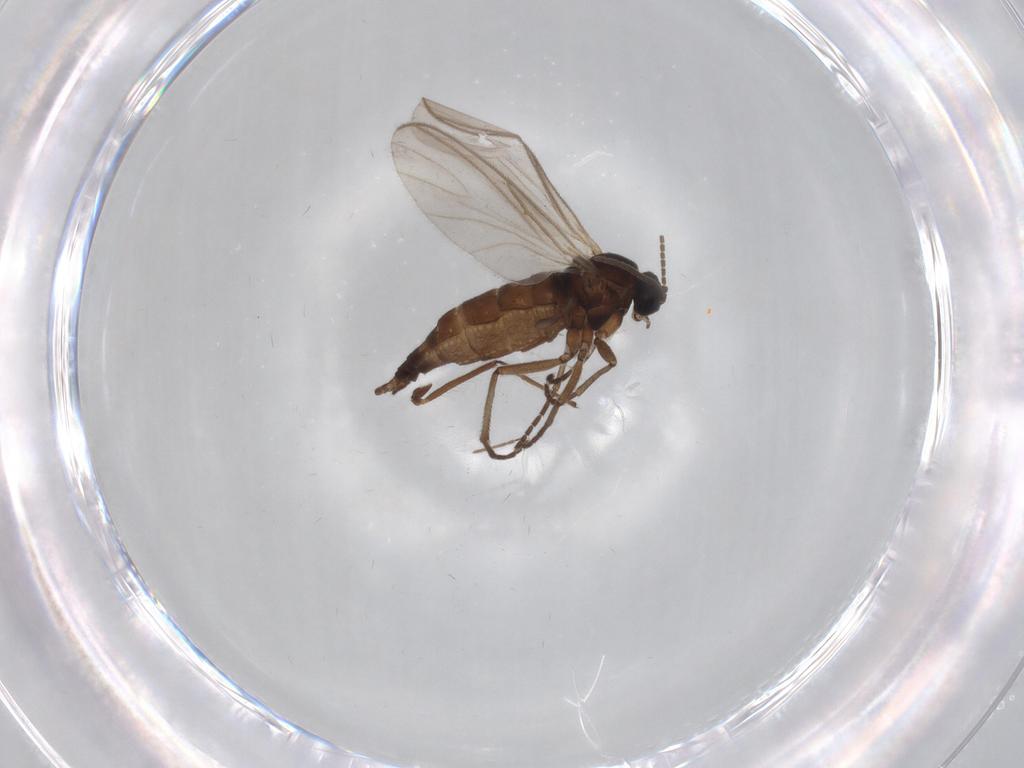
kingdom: Animalia
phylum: Arthropoda
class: Insecta
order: Diptera
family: Sciaridae
